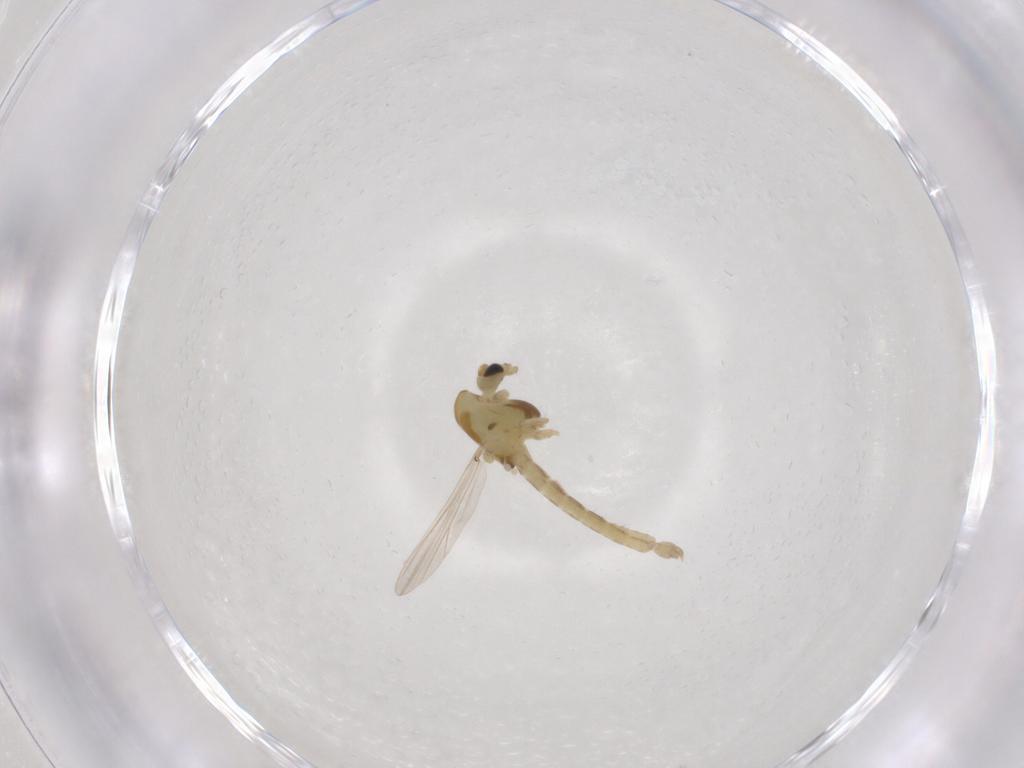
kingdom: Animalia
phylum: Arthropoda
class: Insecta
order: Diptera
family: Chironomidae
